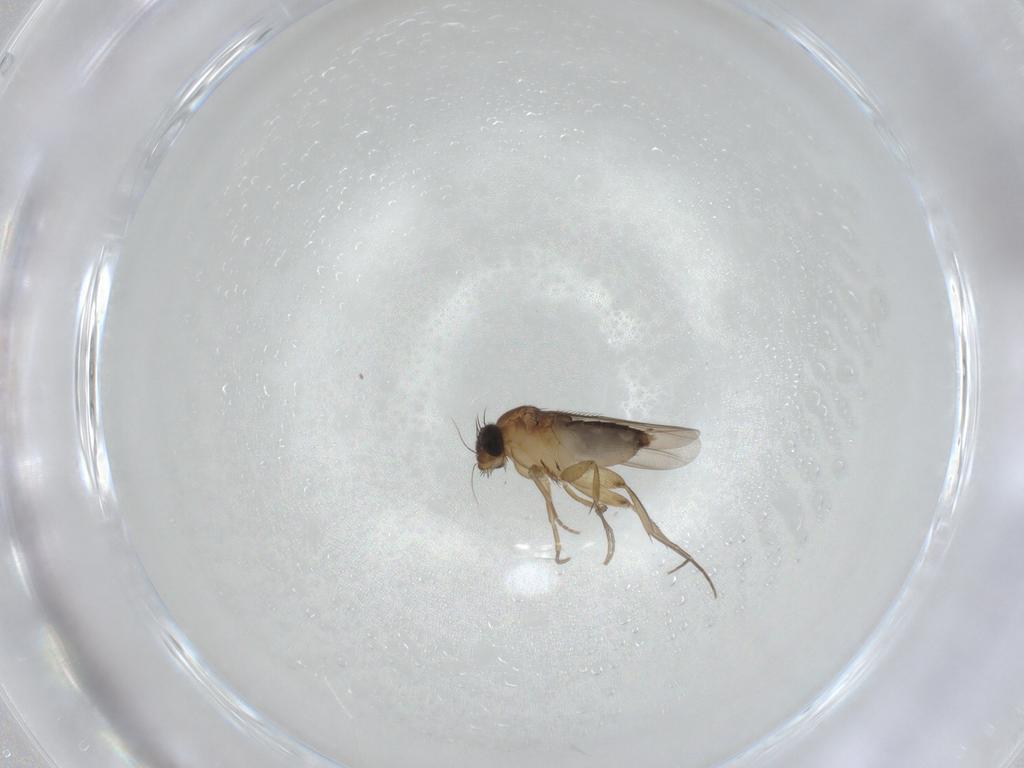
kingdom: Animalia
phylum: Arthropoda
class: Insecta
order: Diptera
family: Phoridae
